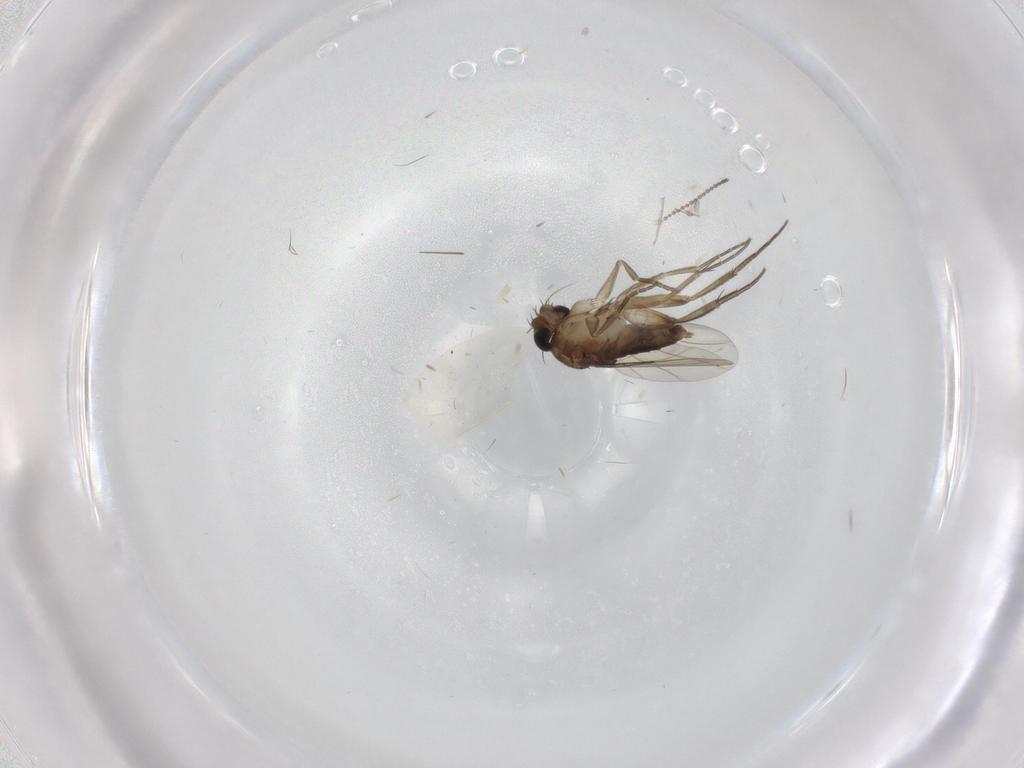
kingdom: Animalia
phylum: Arthropoda
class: Insecta
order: Diptera
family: Phoridae
